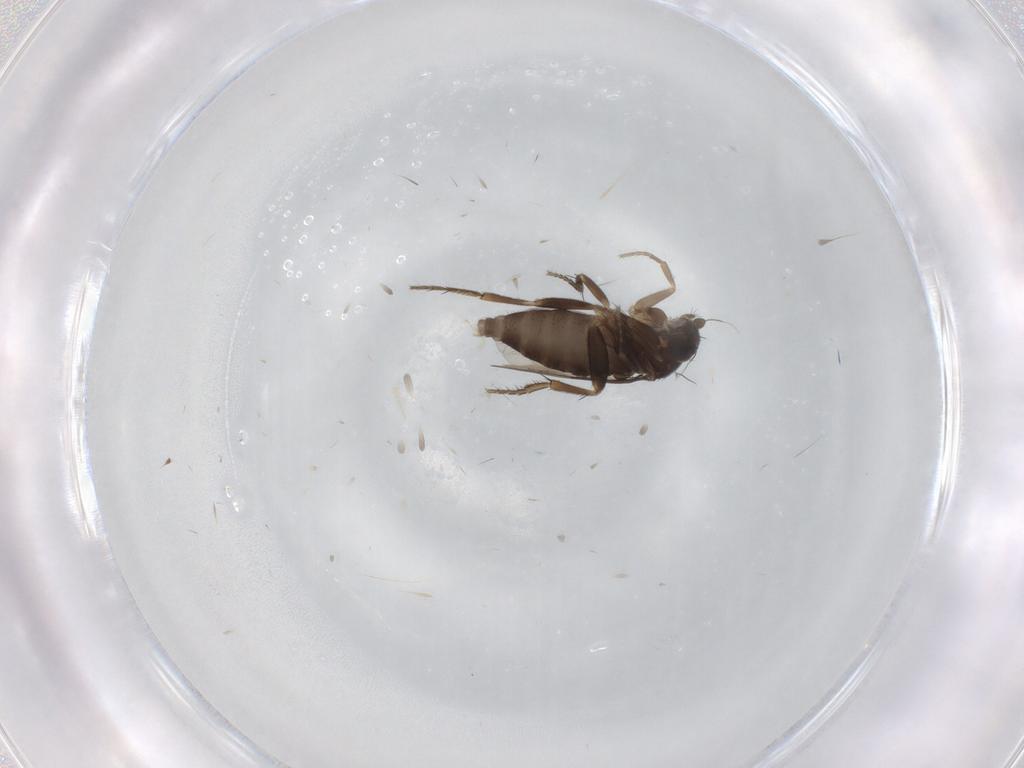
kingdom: Animalia
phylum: Arthropoda
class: Insecta
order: Diptera
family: Phoridae
